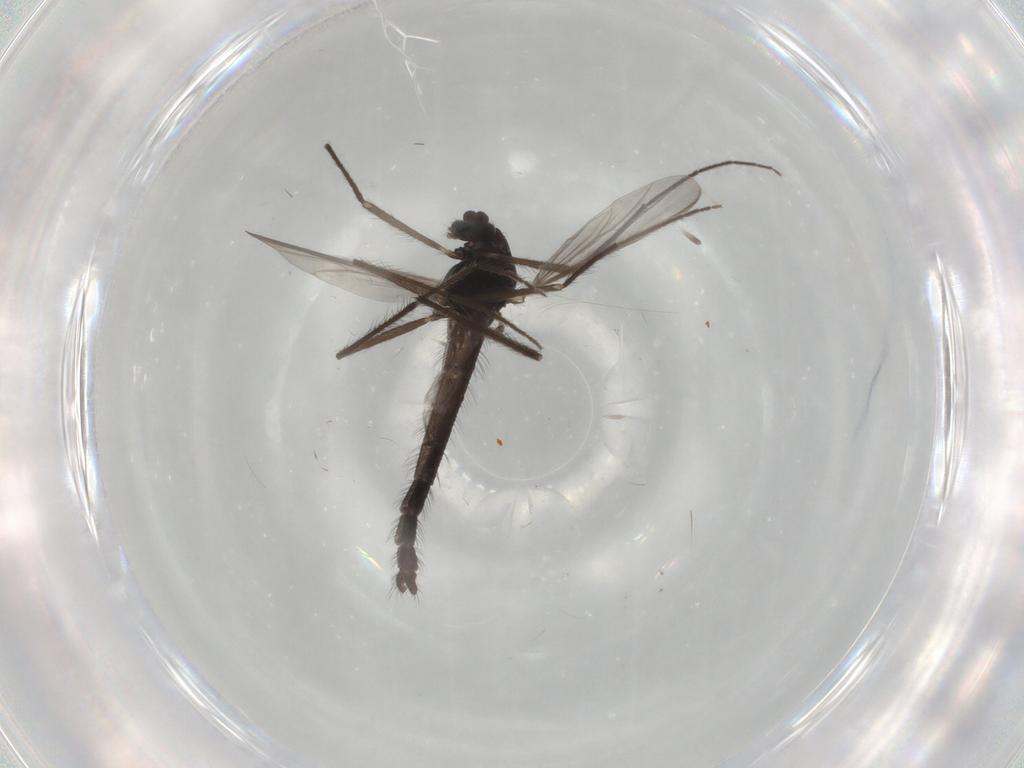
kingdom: Animalia
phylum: Arthropoda
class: Insecta
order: Diptera
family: Chironomidae
